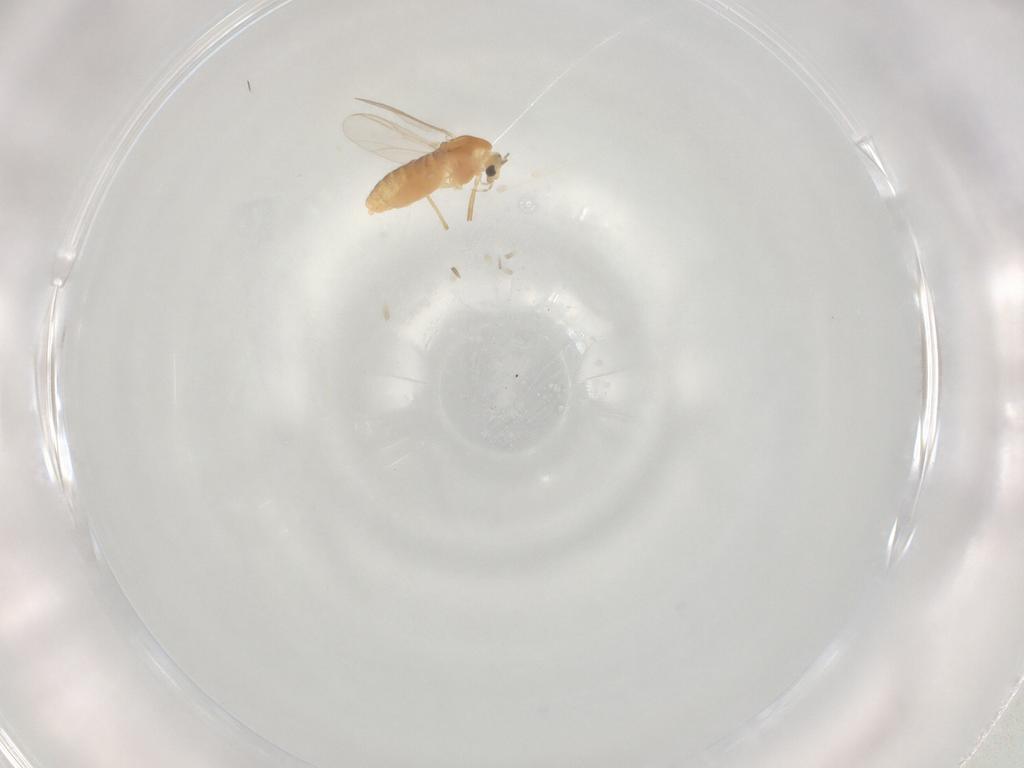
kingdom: Animalia
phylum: Arthropoda
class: Insecta
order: Diptera
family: Chironomidae
